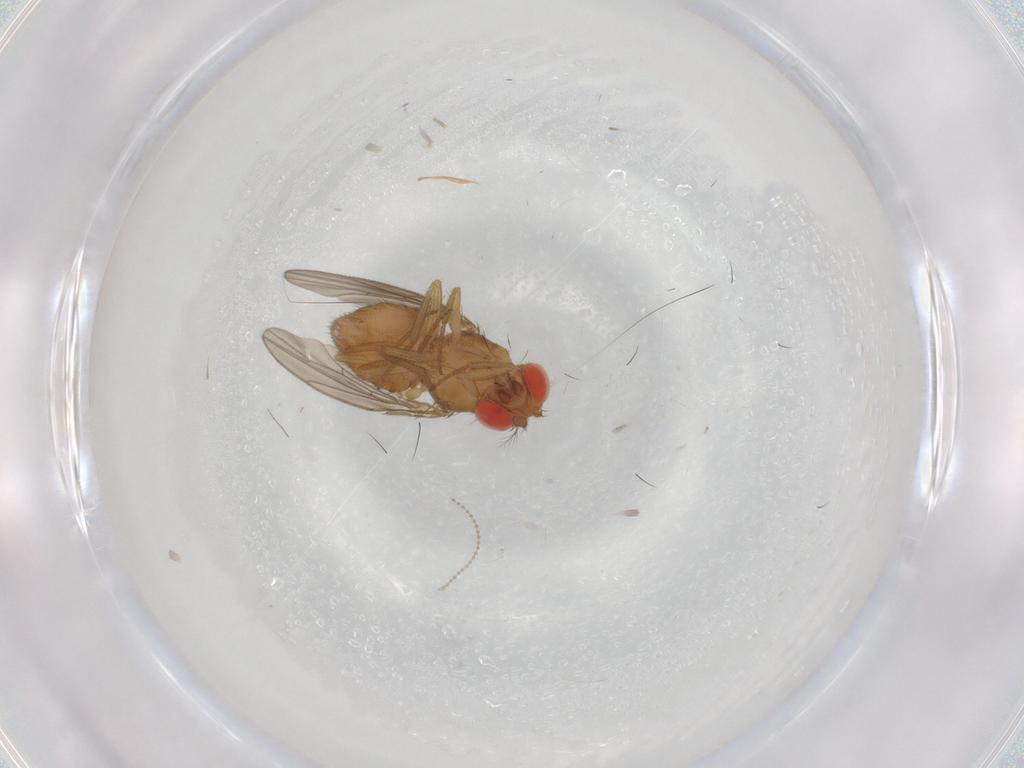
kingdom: Animalia
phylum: Arthropoda
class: Insecta
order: Diptera
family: Drosophilidae
